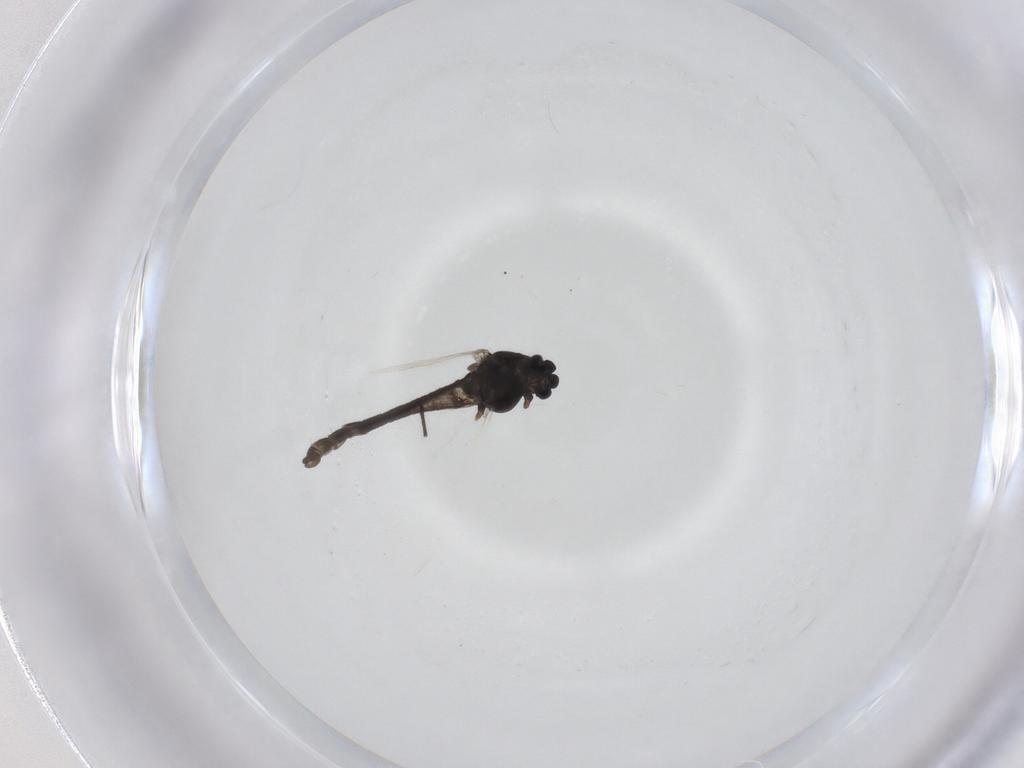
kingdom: Animalia
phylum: Arthropoda
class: Insecta
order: Diptera
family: Chironomidae
